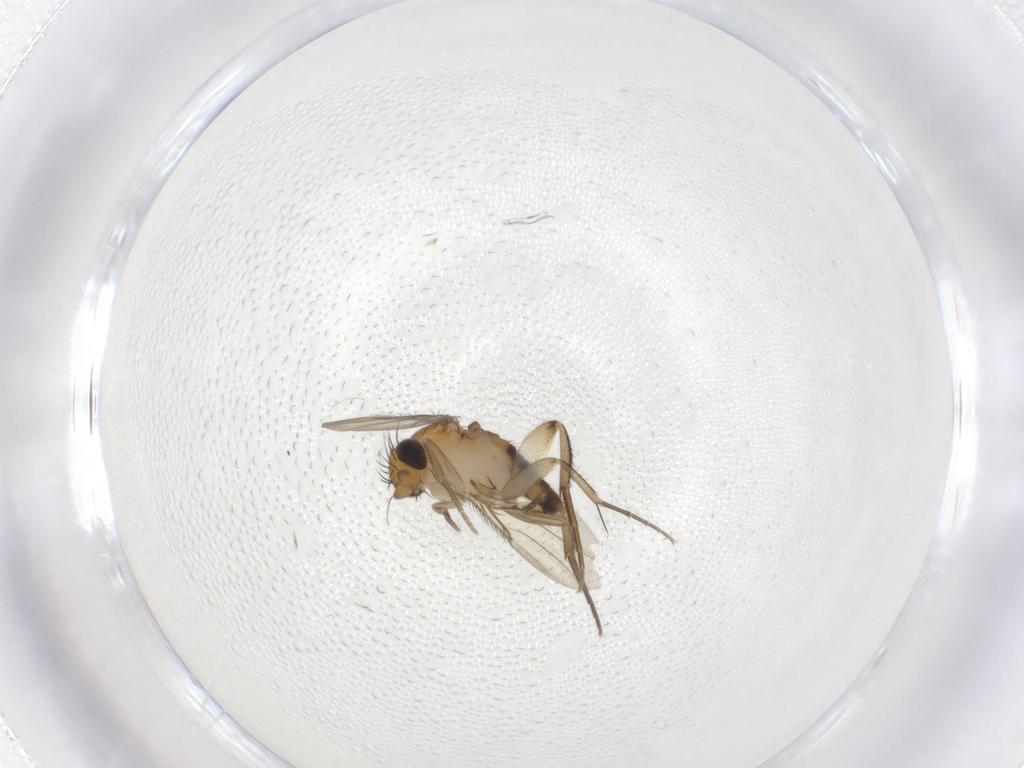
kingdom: Animalia
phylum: Arthropoda
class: Insecta
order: Diptera
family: Phoridae
